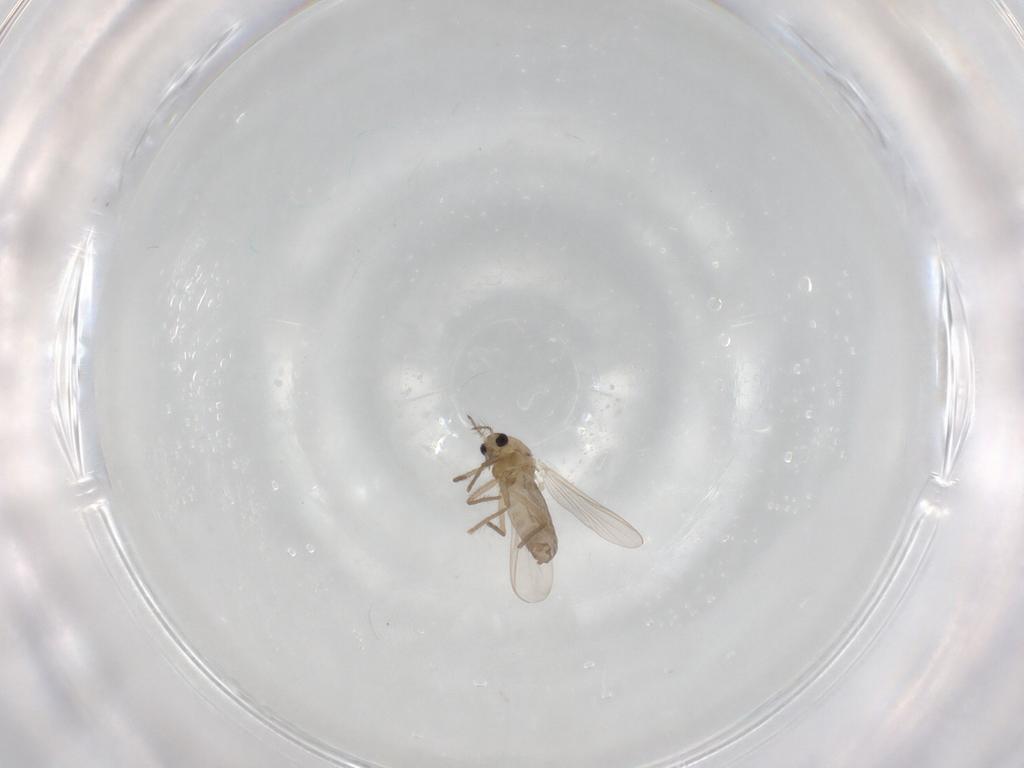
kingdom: Animalia
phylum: Arthropoda
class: Insecta
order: Diptera
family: Chironomidae
